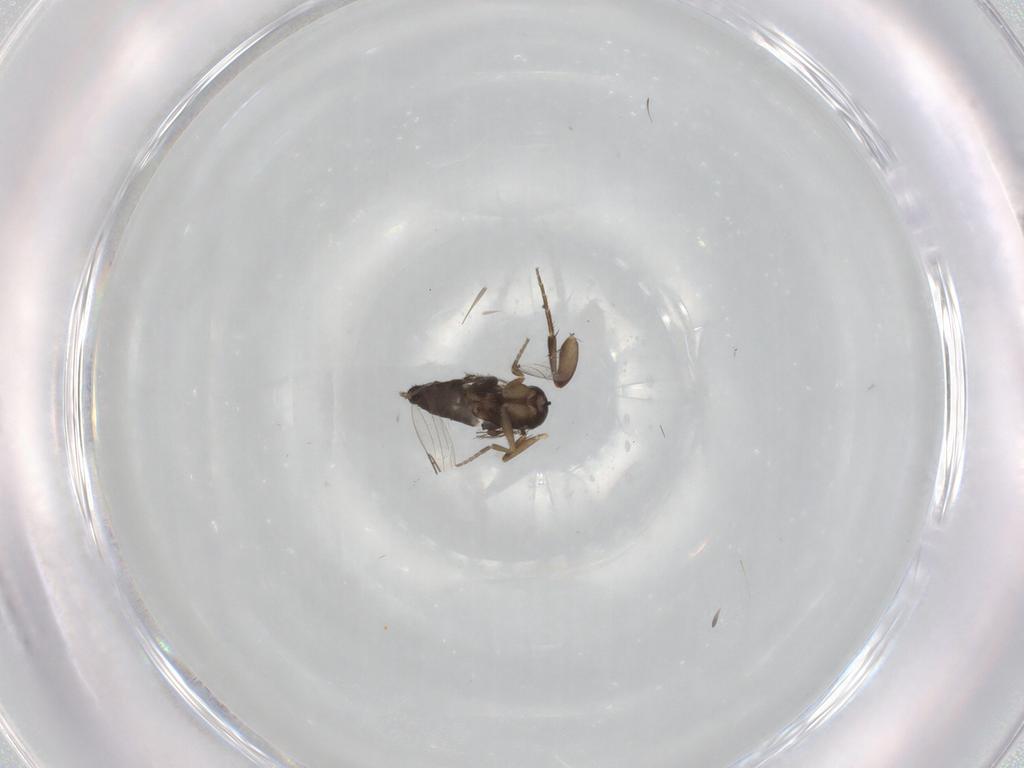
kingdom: Animalia
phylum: Arthropoda
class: Insecta
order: Diptera
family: Phoridae
